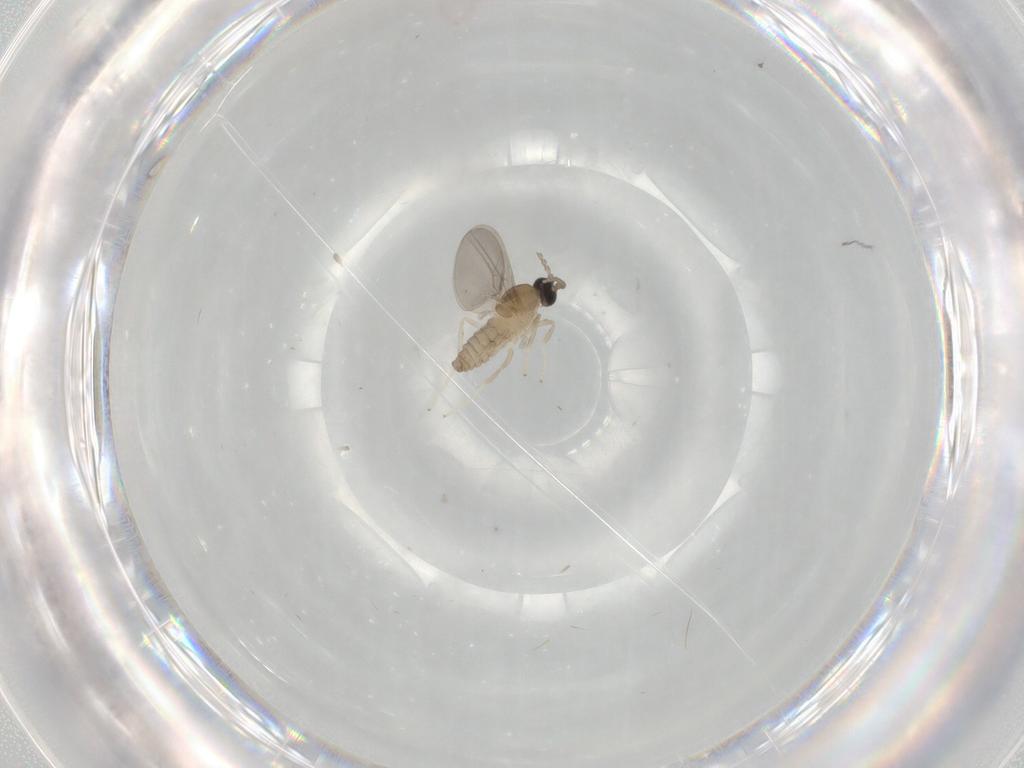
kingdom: Animalia
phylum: Arthropoda
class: Insecta
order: Diptera
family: Cecidomyiidae
